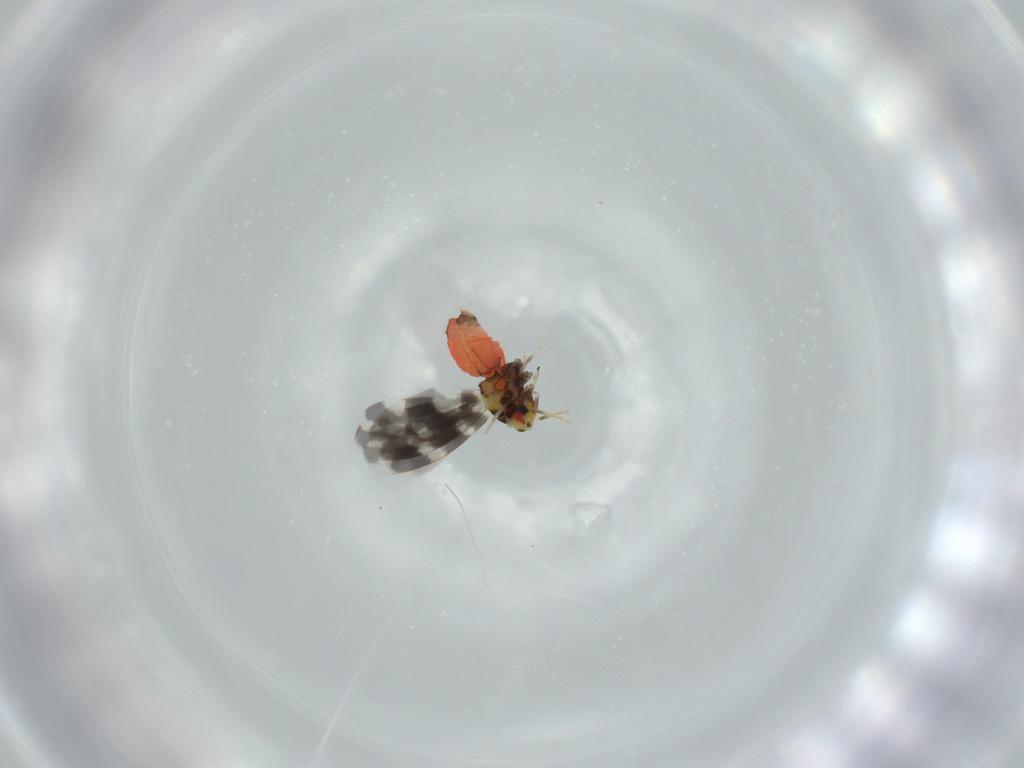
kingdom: Animalia
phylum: Arthropoda
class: Insecta
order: Hemiptera
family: Aleyrodidae
